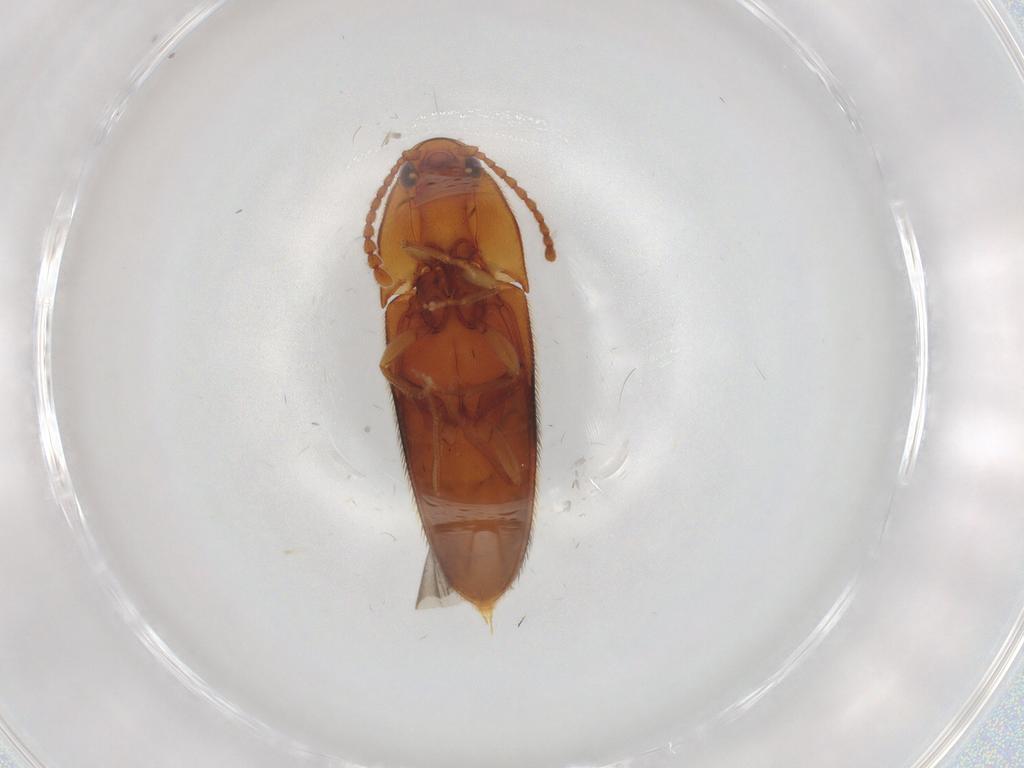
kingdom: Animalia
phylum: Arthropoda
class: Insecta
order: Coleoptera
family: Elateridae
